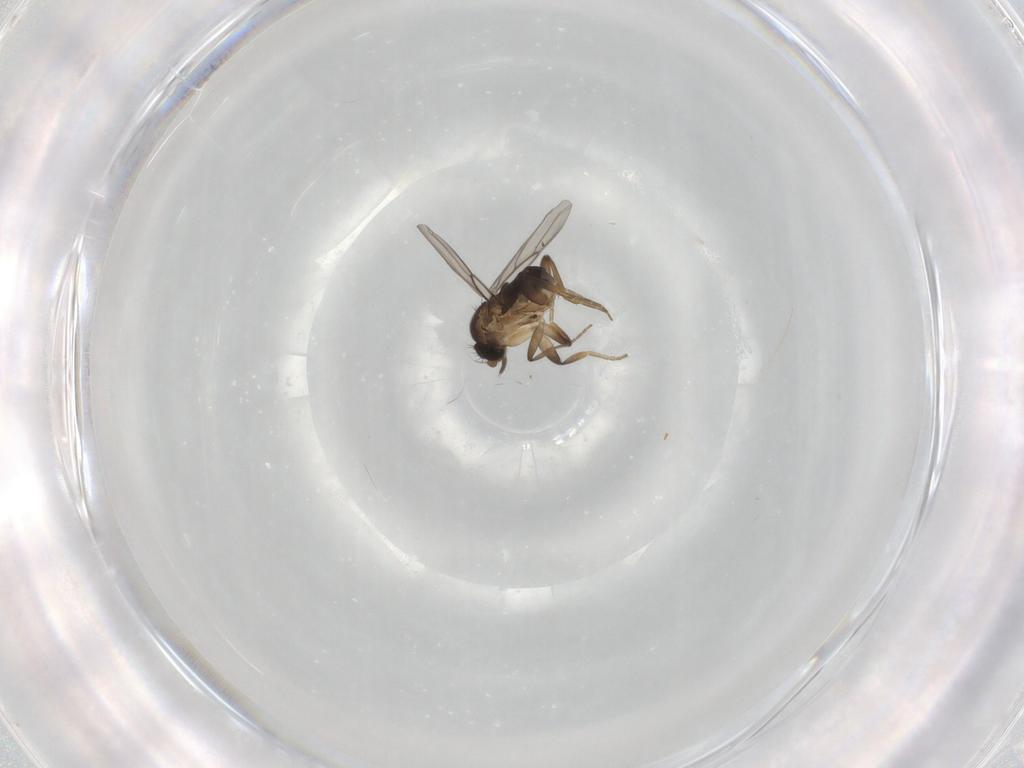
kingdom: Animalia
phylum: Arthropoda
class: Insecta
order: Diptera
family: Phoridae
